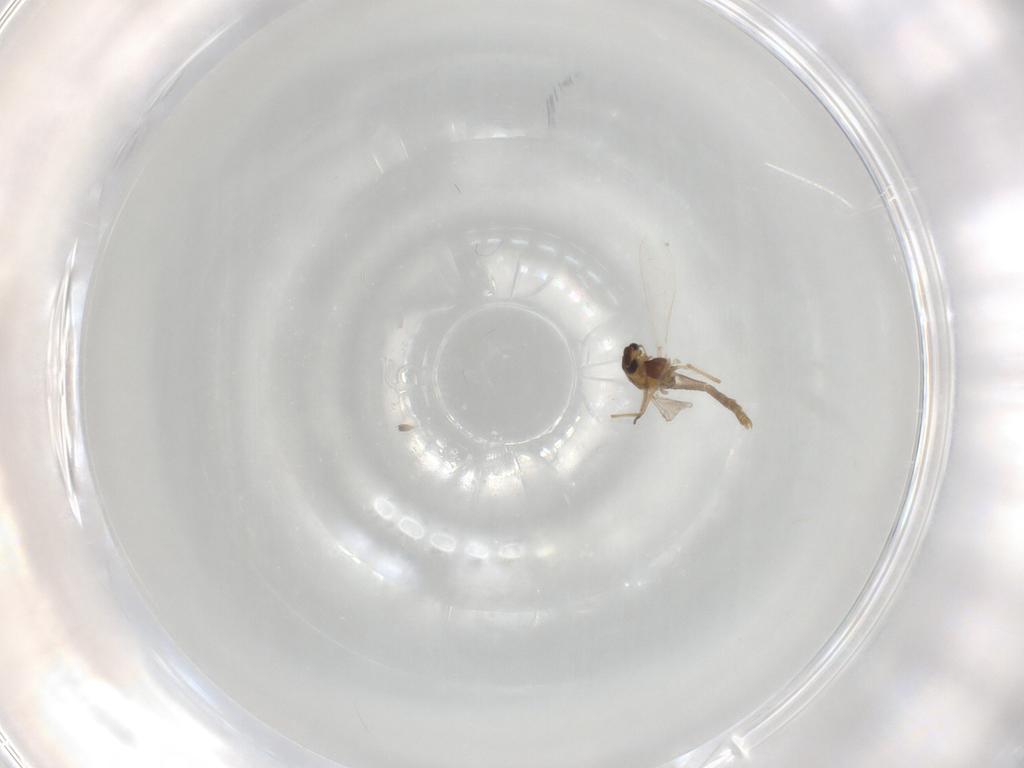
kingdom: Animalia
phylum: Arthropoda
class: Insecta
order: Diptera
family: Chironomidae
